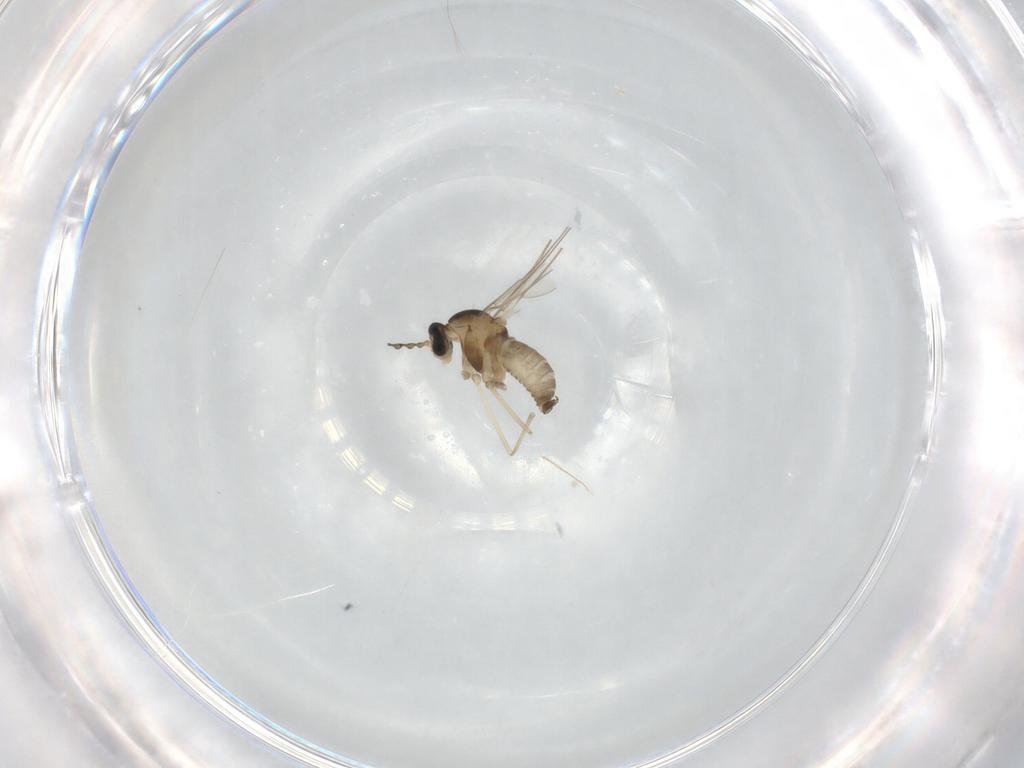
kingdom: Animalia
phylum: Arthropoda
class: Insecta
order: Diptera
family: Cecidomyiidae
